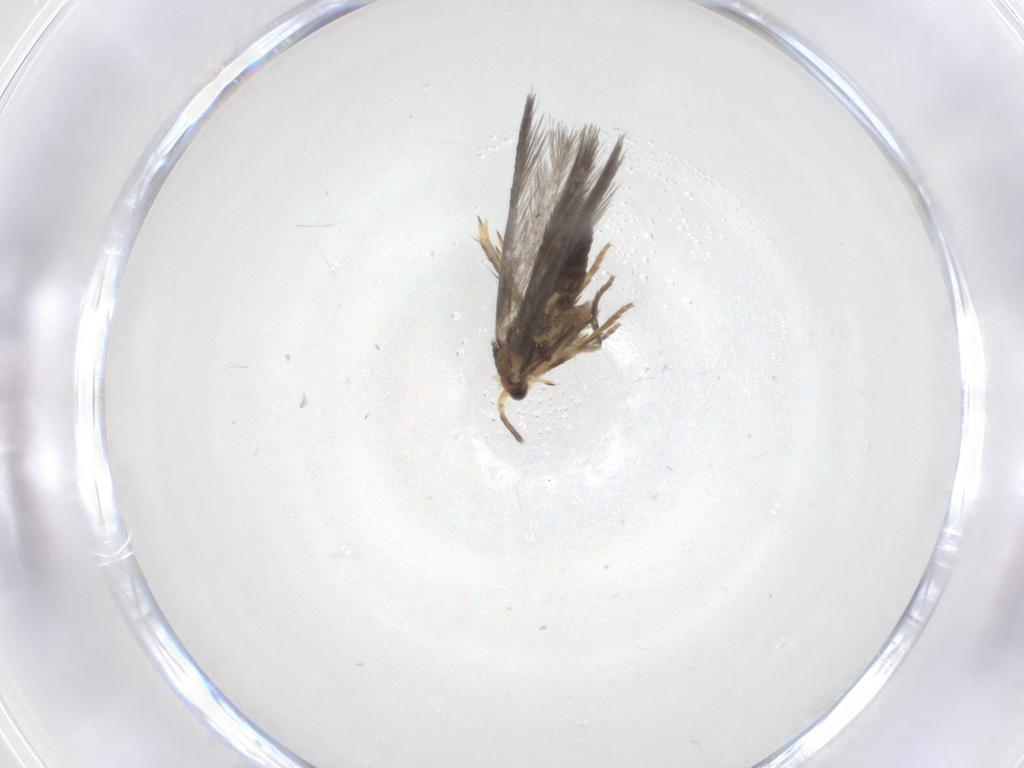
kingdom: Animalia
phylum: Arthropoda
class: Insecta
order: Lepidoptera
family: Nepticulidae
